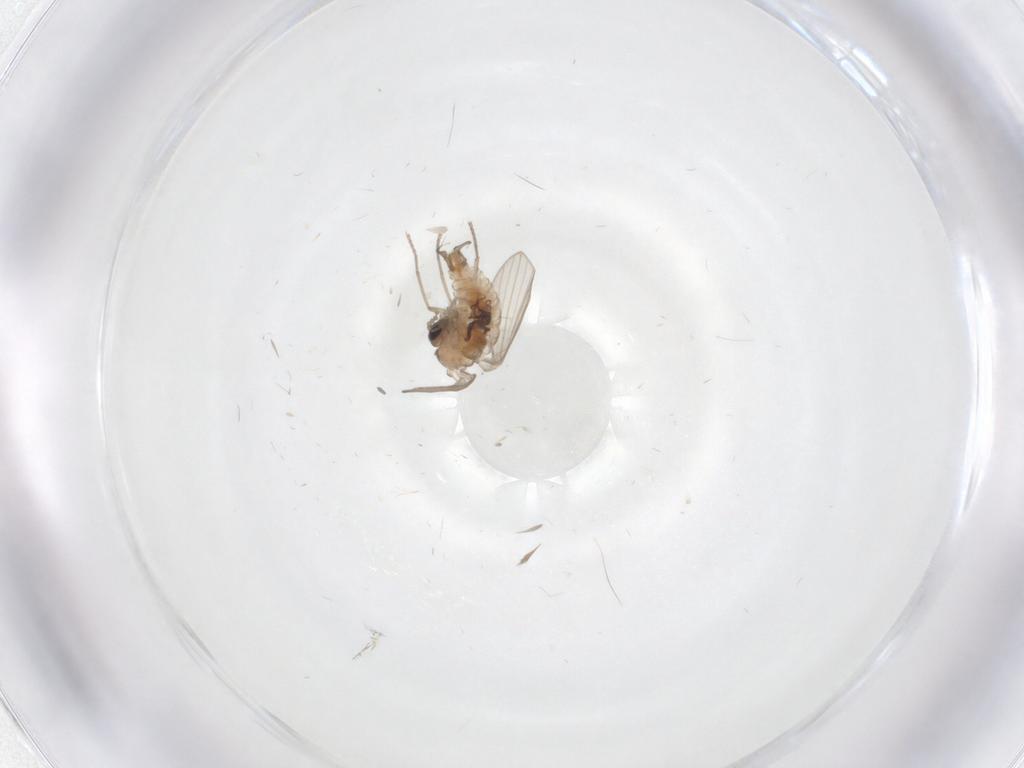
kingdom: Animalia
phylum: Arthropoda
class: Insecta
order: Diptera
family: Psychodidae
